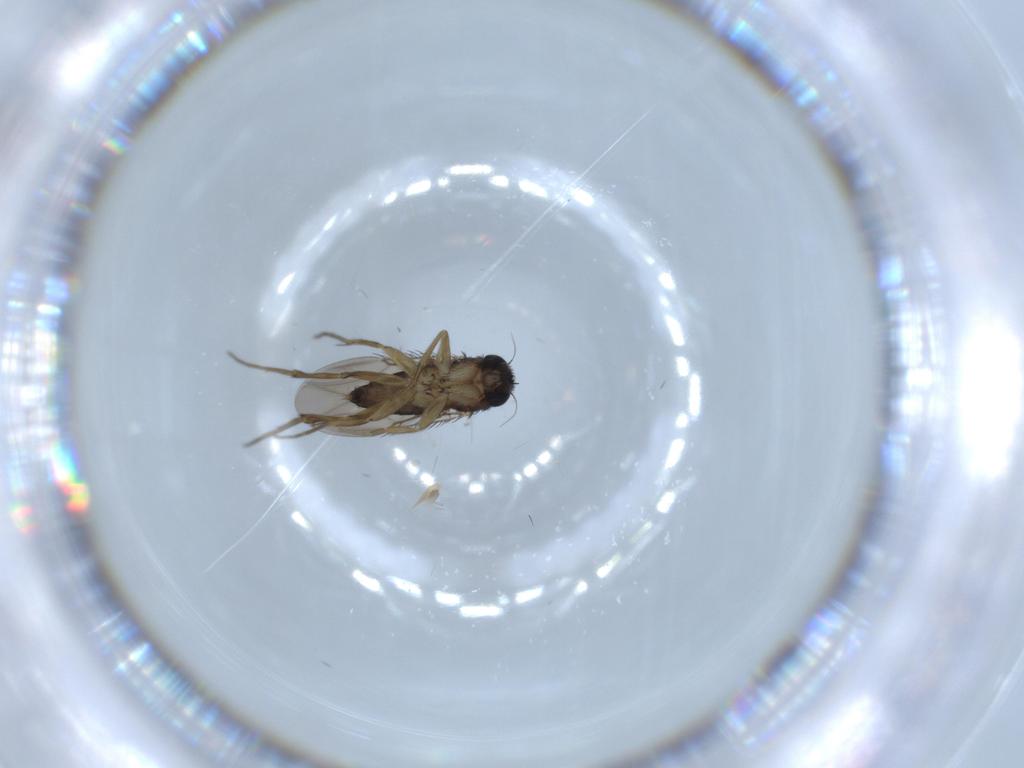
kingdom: Animalia
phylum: Arthropoda
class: Insecta
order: Diptera
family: Phoridae
